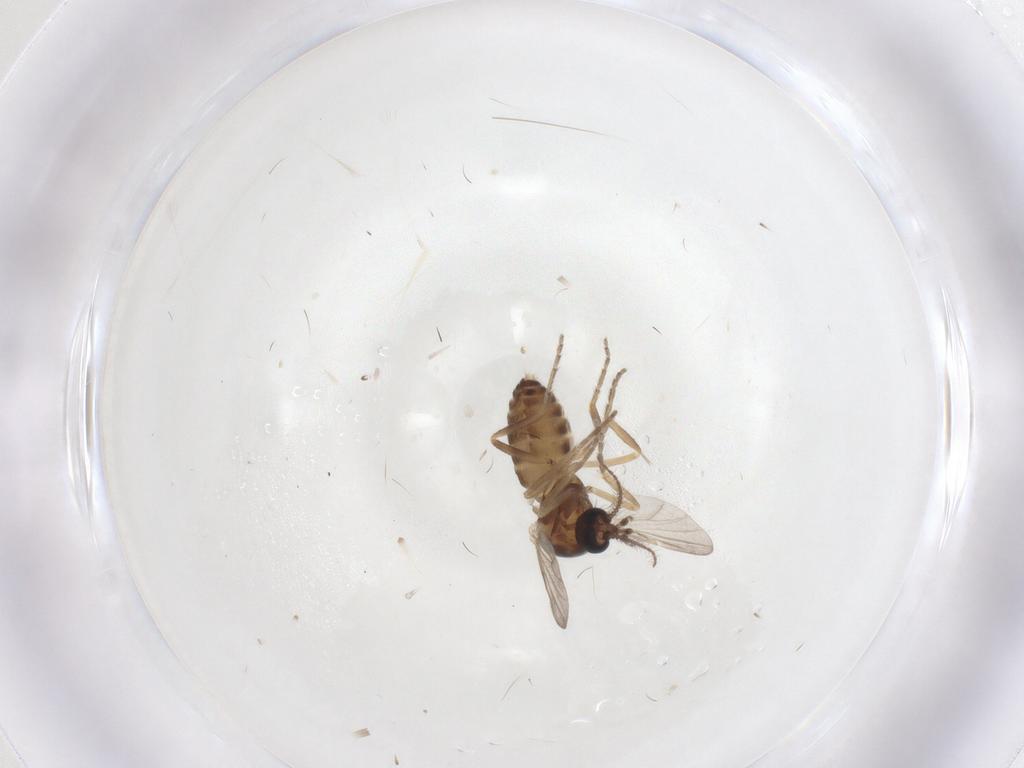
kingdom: Animalia
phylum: Arthropoda
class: Insecta
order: Diptera
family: Ceratopogonidae
